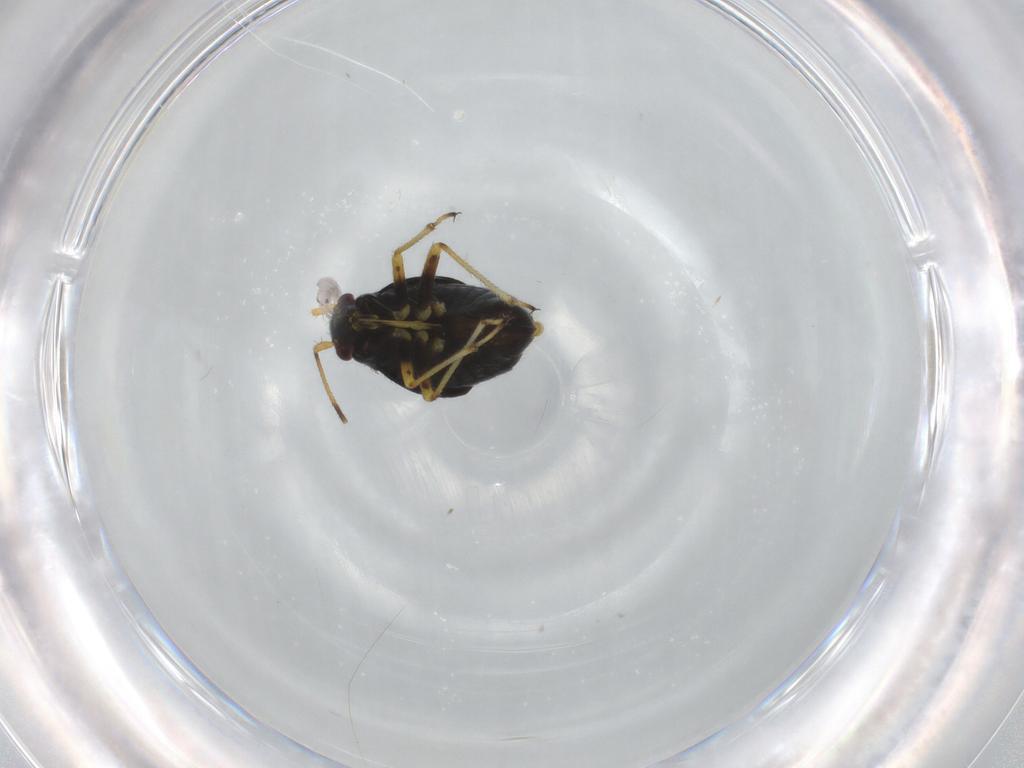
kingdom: Animalia
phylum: Arthropoda
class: Insecta
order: Hemiptera
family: Miridae
